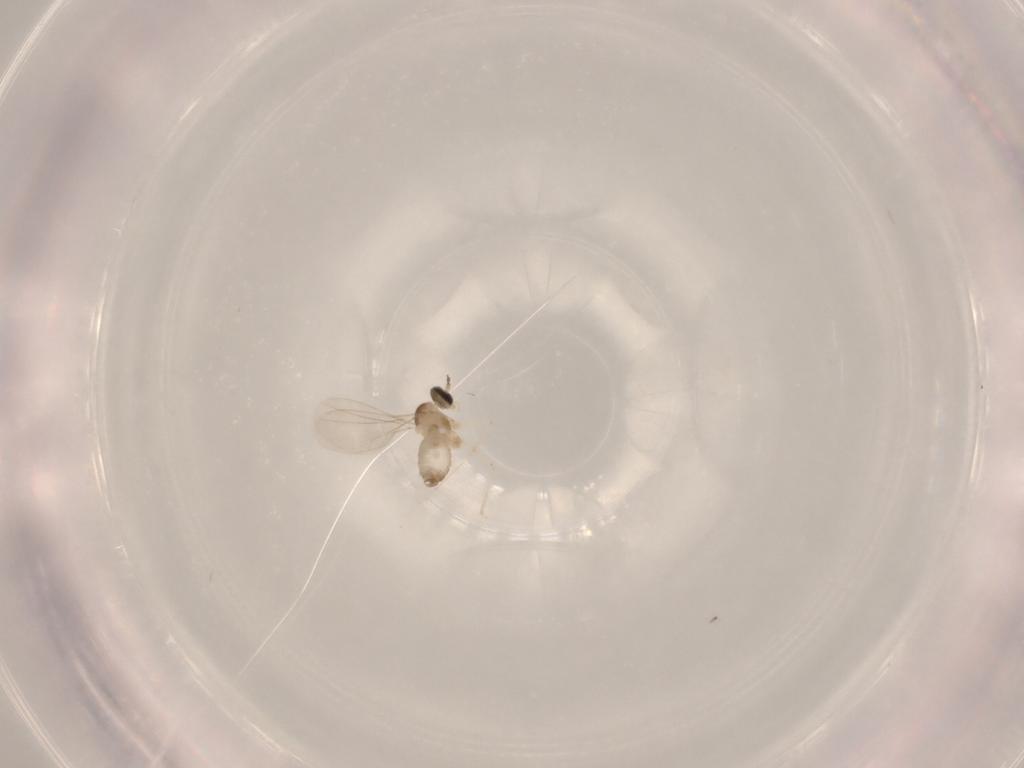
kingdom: Animalia
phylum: Arthropoda
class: Insecta
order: Diptera
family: Cecidomyiidae
